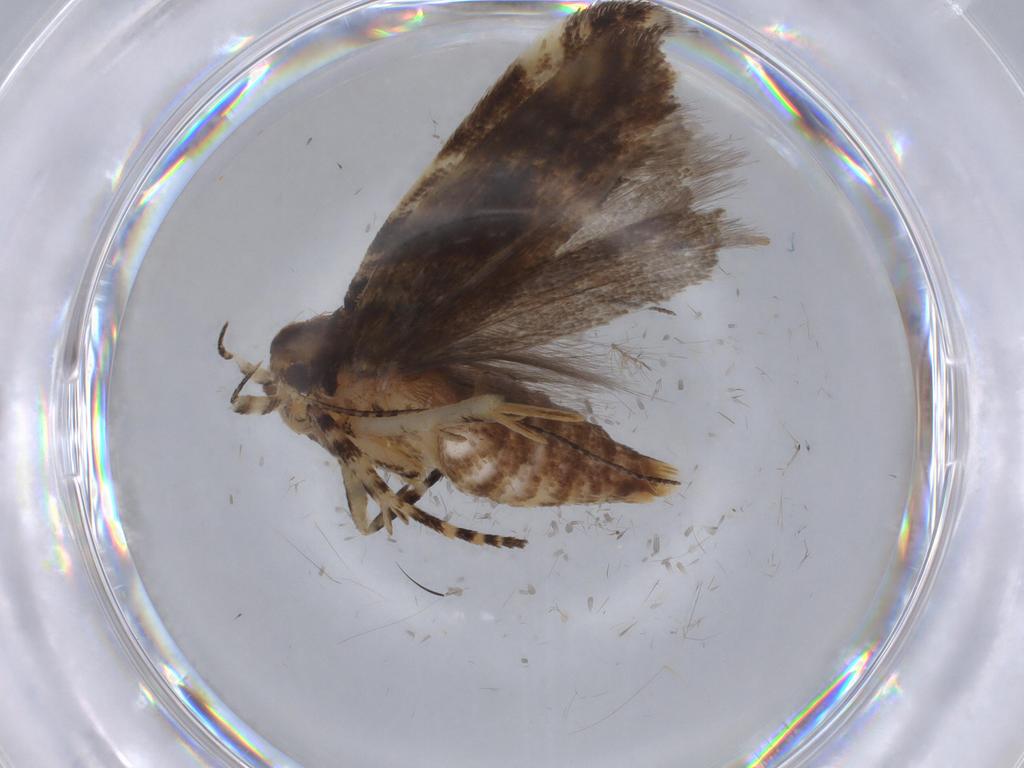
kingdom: Animalia
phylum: Arthropoda
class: Insecta
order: Lepidoptera
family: Gelechiidae
